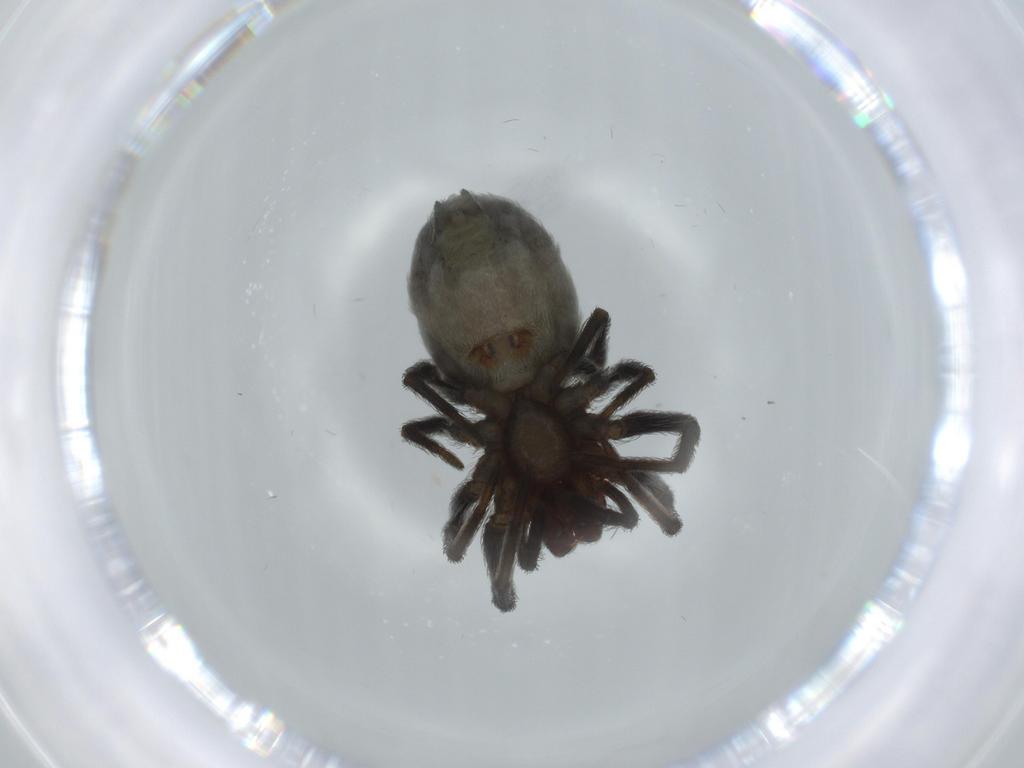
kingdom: Animalia
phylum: Arthropoda
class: Arachnida
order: Araneae
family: Dictynidae
